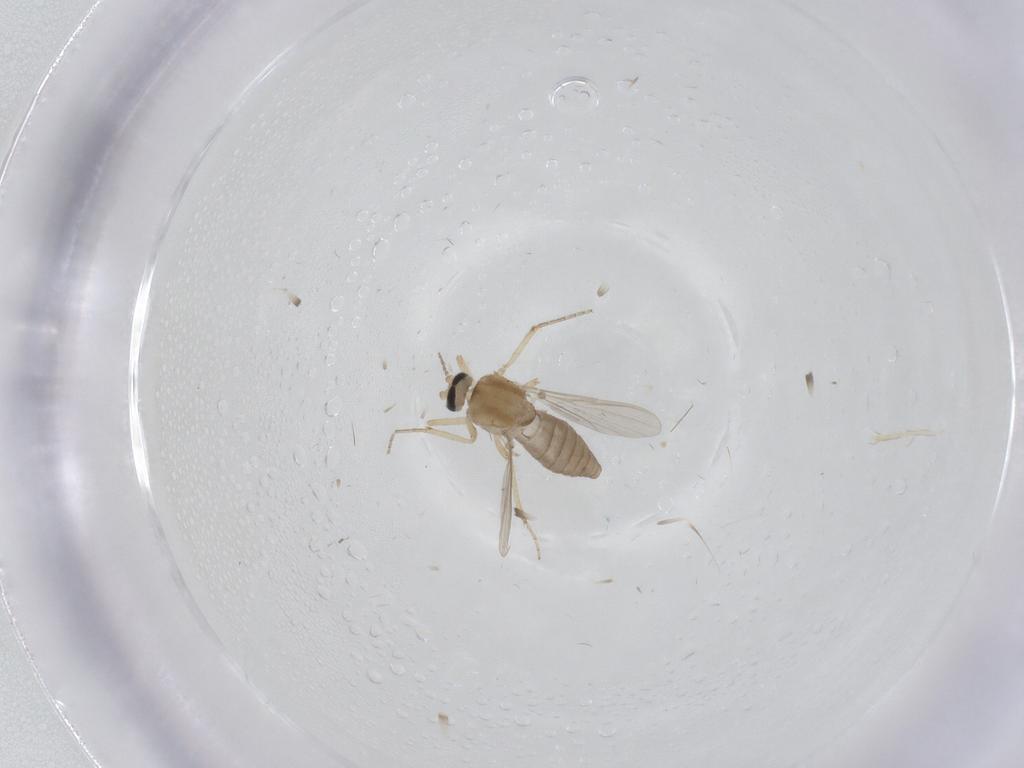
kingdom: Animalia
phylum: Arthropoda
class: Insecta
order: Diptera
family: Ceratopogonidae
